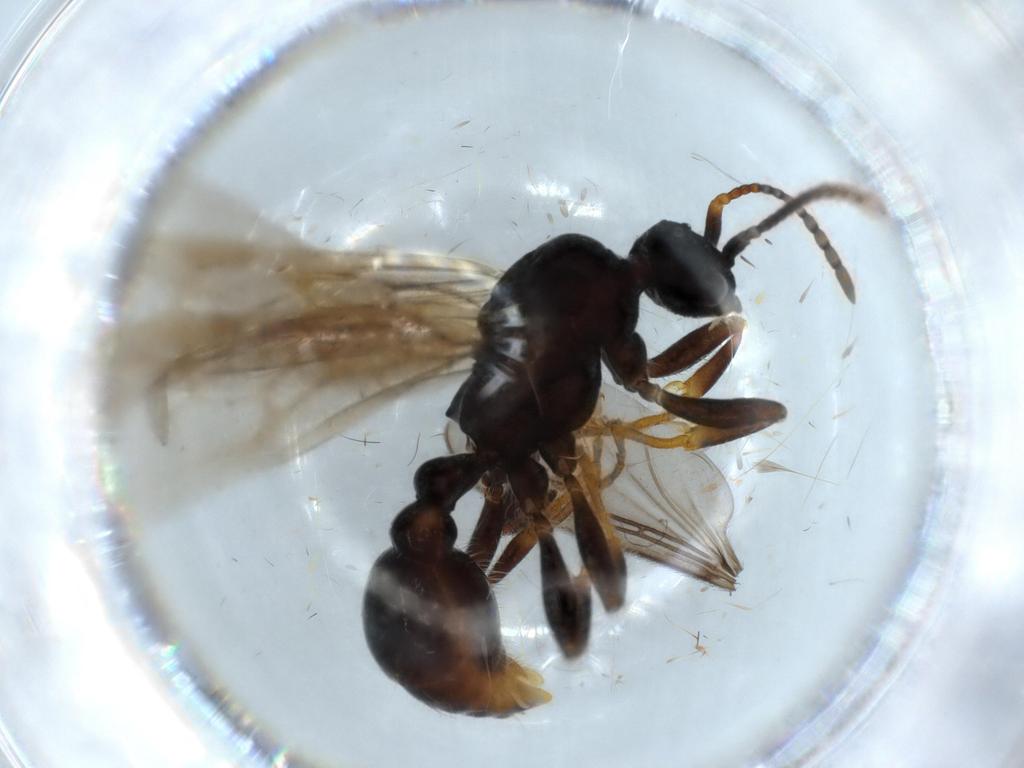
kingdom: Animalia
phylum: Arthropoda
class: Insecta
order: Hymenoptera
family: Formicidae
